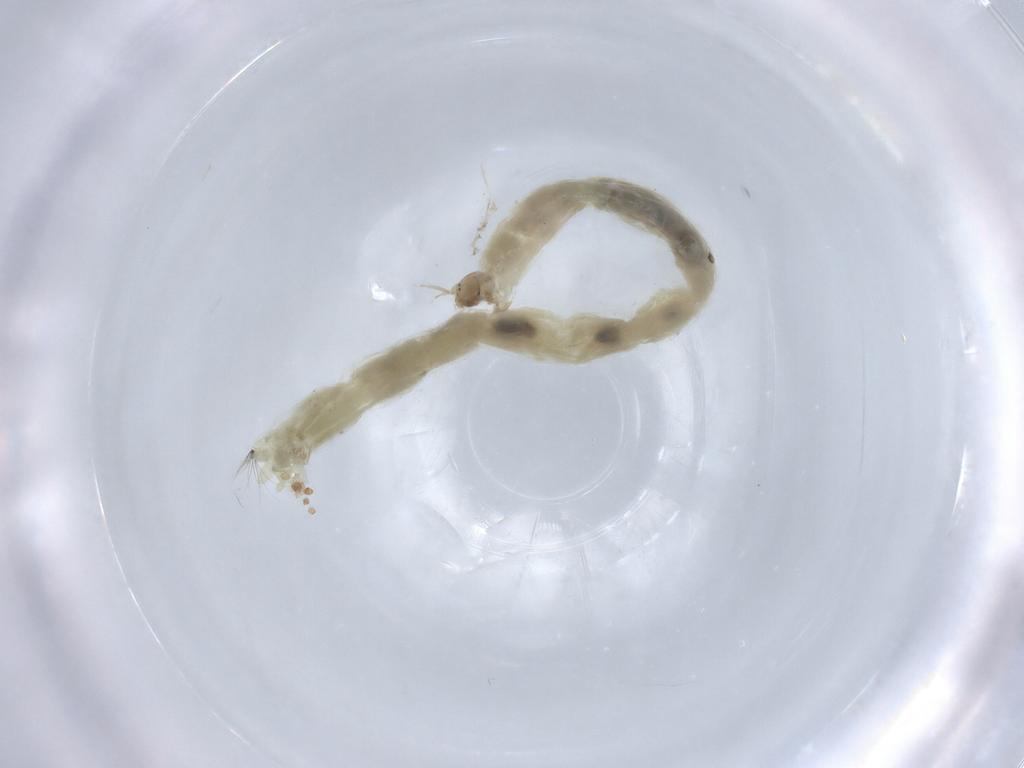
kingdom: Animalia
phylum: Arthropoda
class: Insecta
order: Diptera
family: Chironomidae
